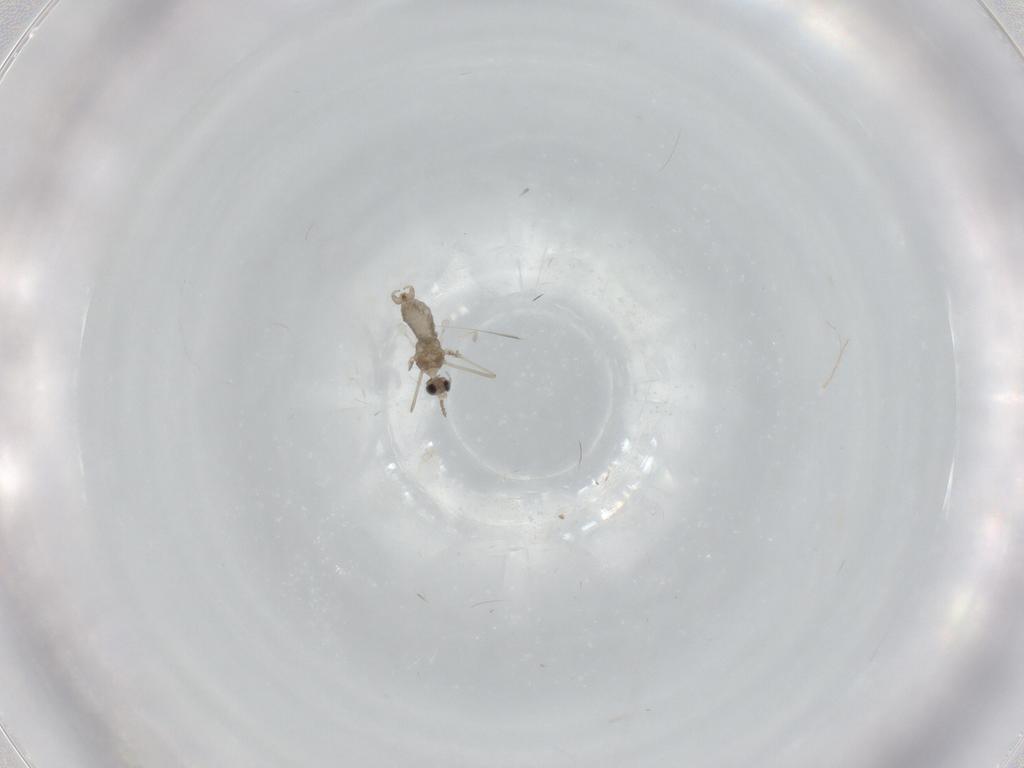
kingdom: Animalia
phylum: Arthropoda
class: Insecta
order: Diptera
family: Cecidomyiidae
